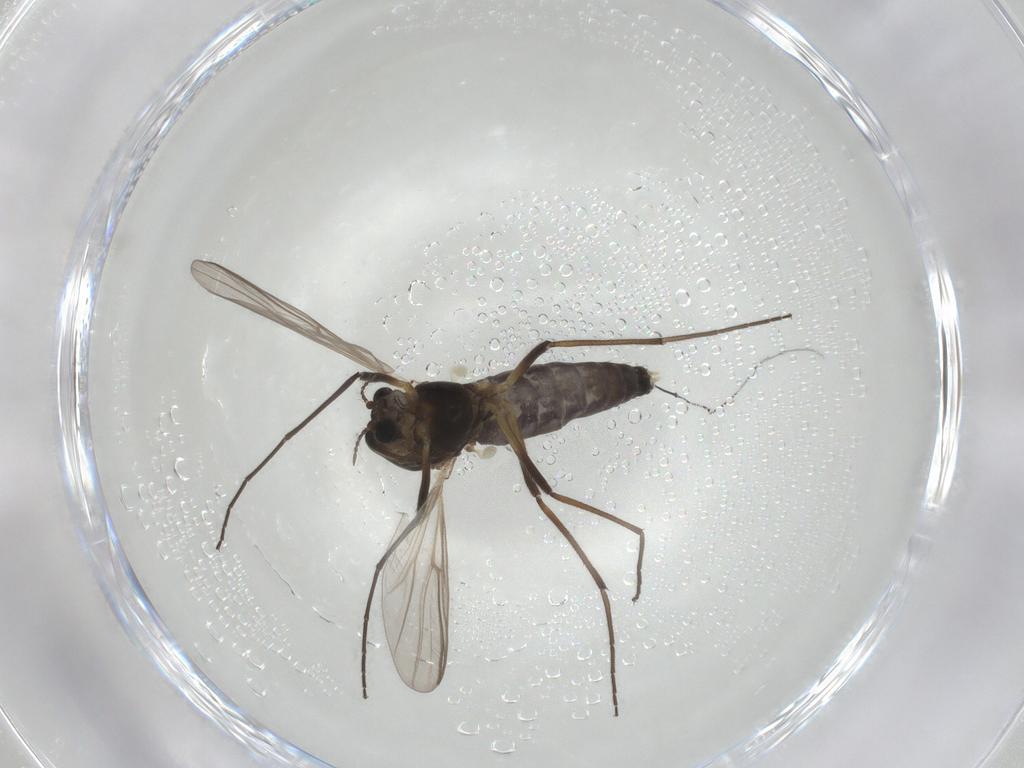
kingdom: Animalia
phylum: Arthropoda
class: Insecta
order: Diptera
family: Chironomidae
